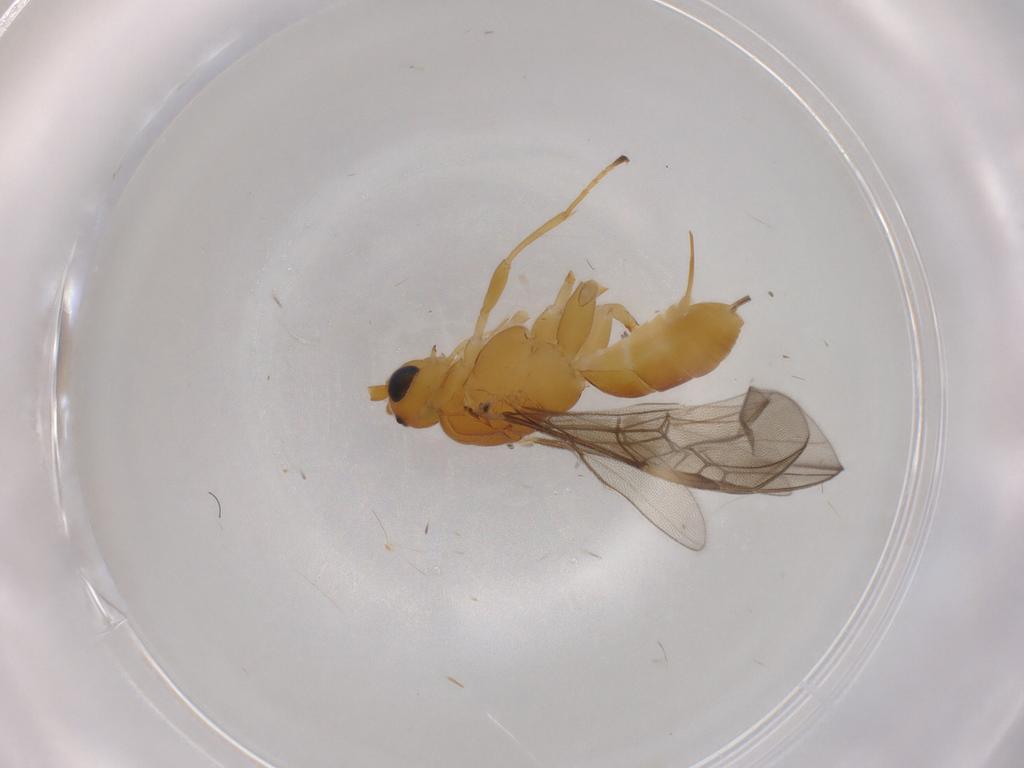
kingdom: Animalia
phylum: Arthropoda
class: Insecta
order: Hymenoptera
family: Braconidae
